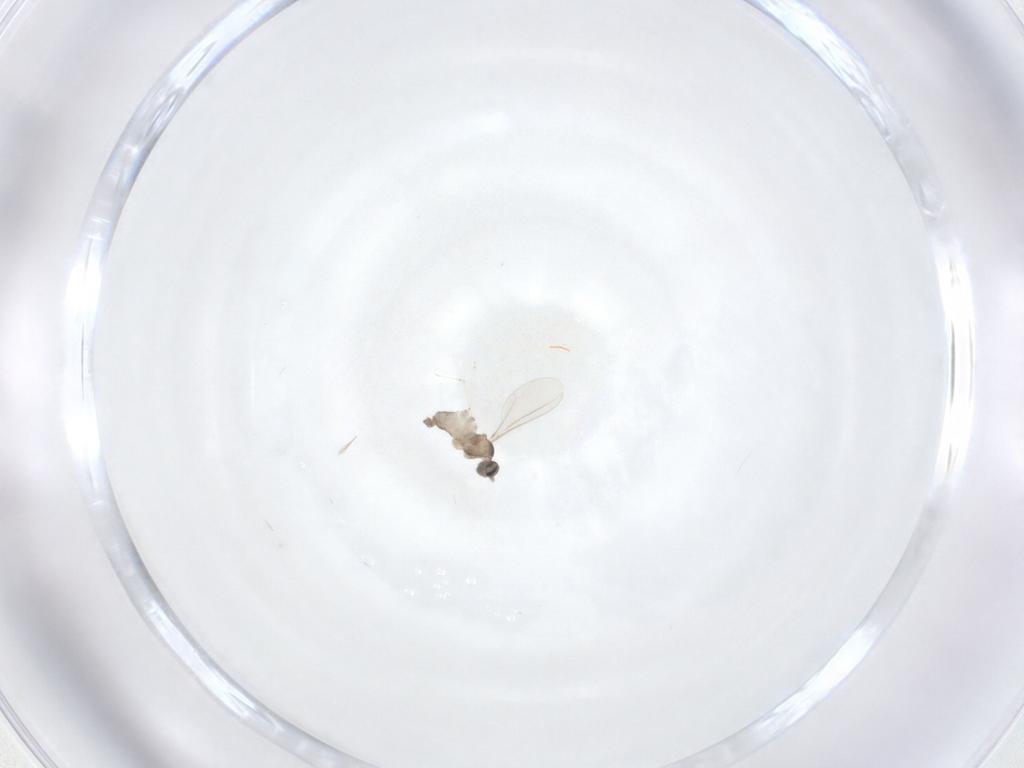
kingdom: Animalia
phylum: Arthropoda
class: Insecta
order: Diptera
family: Cecidomyiidae
